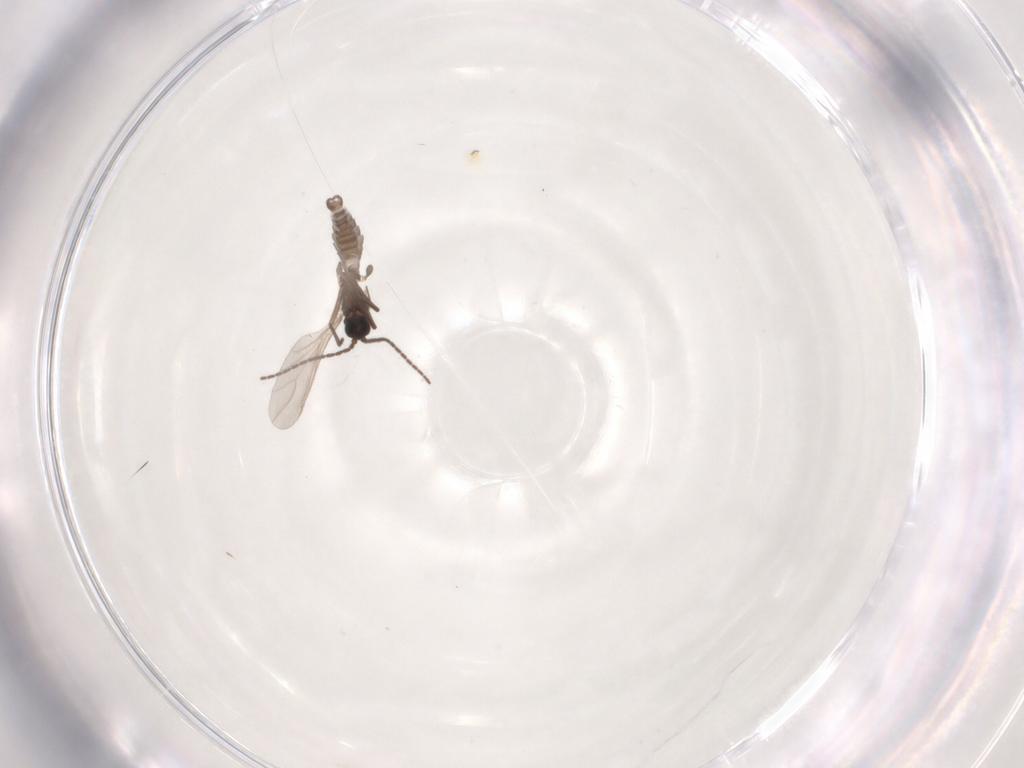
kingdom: Animalia
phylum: Arthropoda
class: Insecta
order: Diptera
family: Sciaridae
